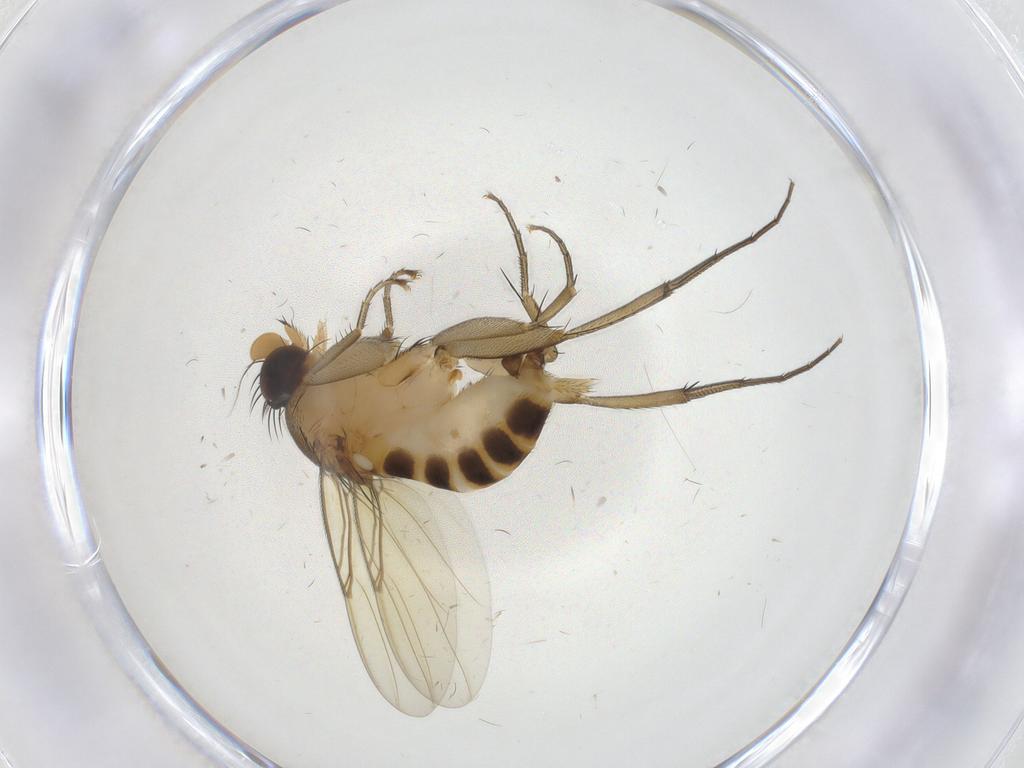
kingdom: Animalia
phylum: Arthropoda
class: Insecta
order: Diptera
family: Phoridae
